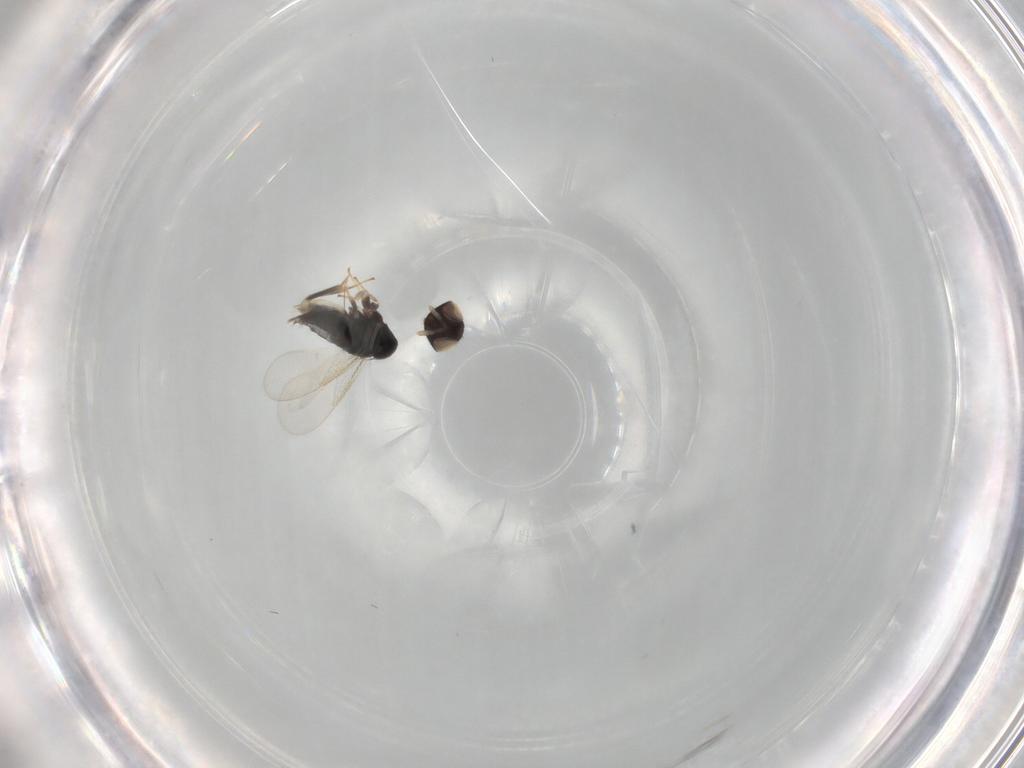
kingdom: Animalia
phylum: Arthropoda
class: Insecta
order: Hymenoptera
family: Aphelinidae
